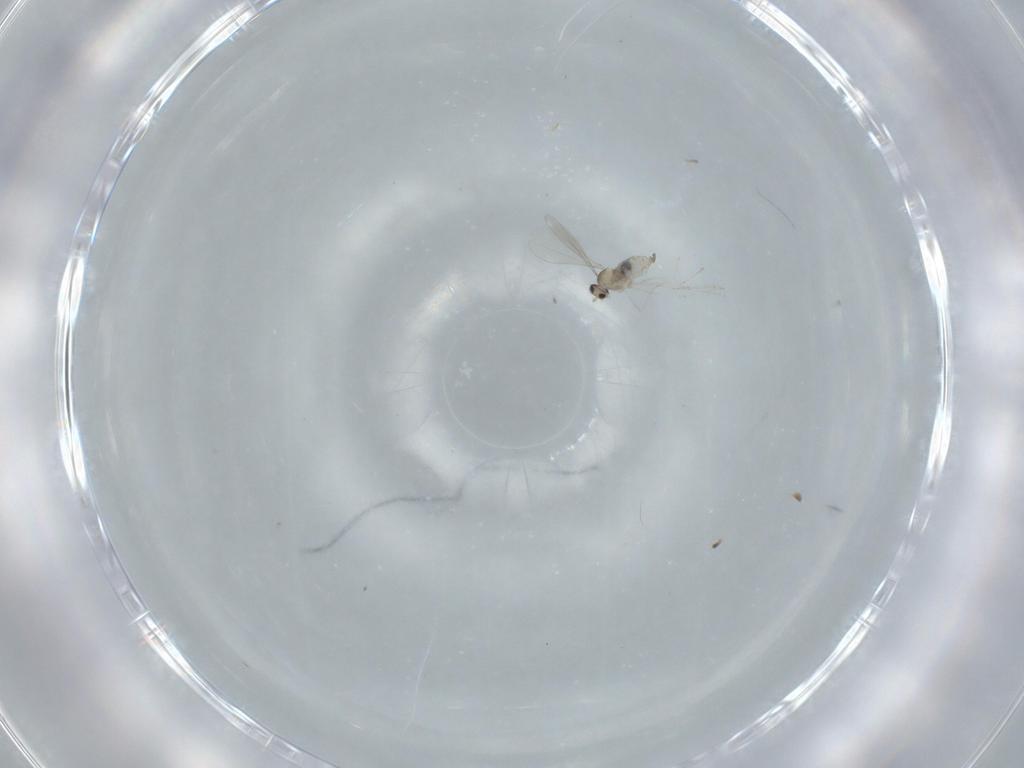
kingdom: Animalia
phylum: Arthropoda
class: Insecta
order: Diptera
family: Cecidomyiidae
